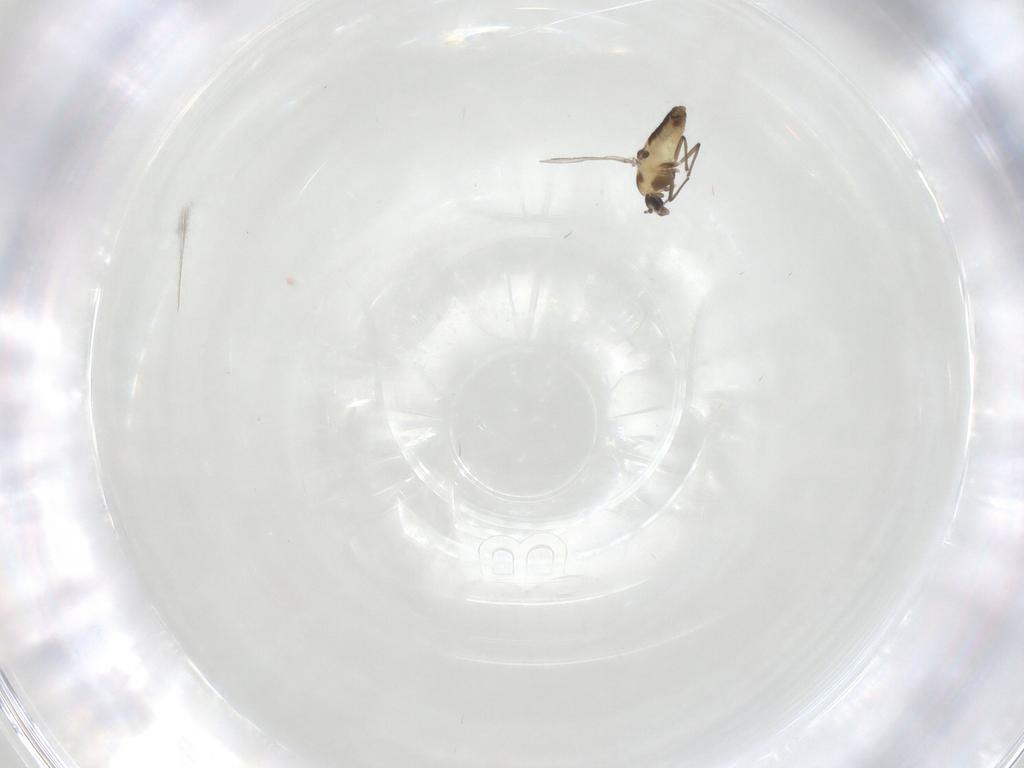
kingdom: Animalia
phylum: Arthropoda
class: Insecta
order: Diptera
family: Chironomidae
